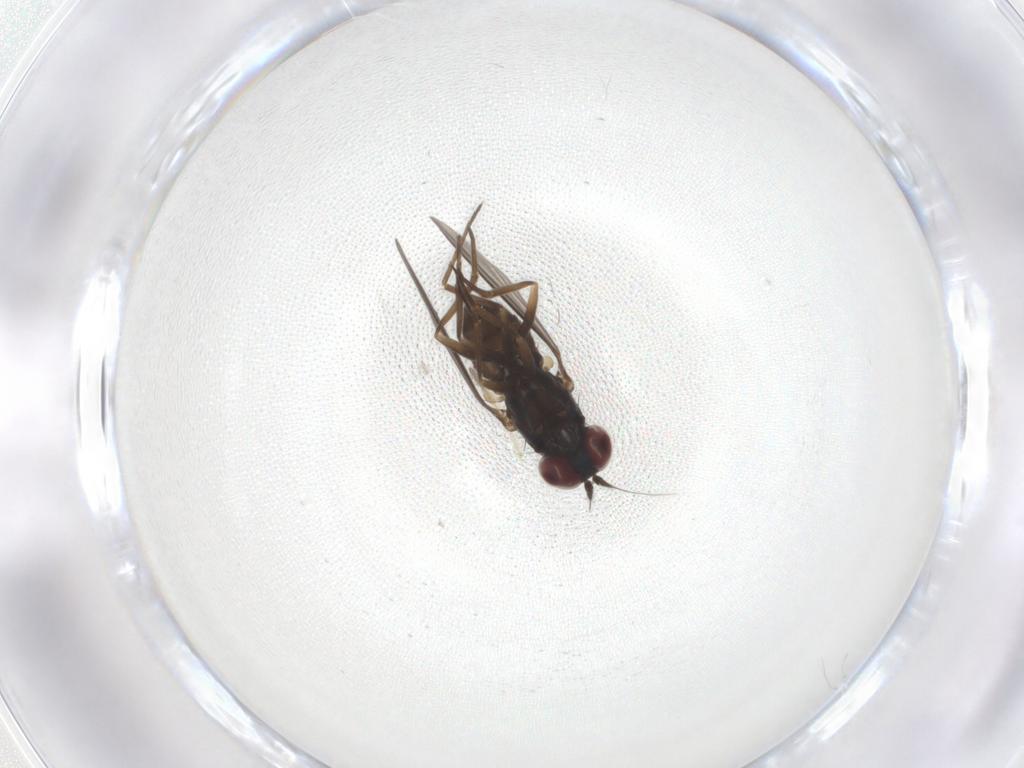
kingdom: Animalia
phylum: Arthropoda
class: Insecta
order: Diptera
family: Dolichopodidae
